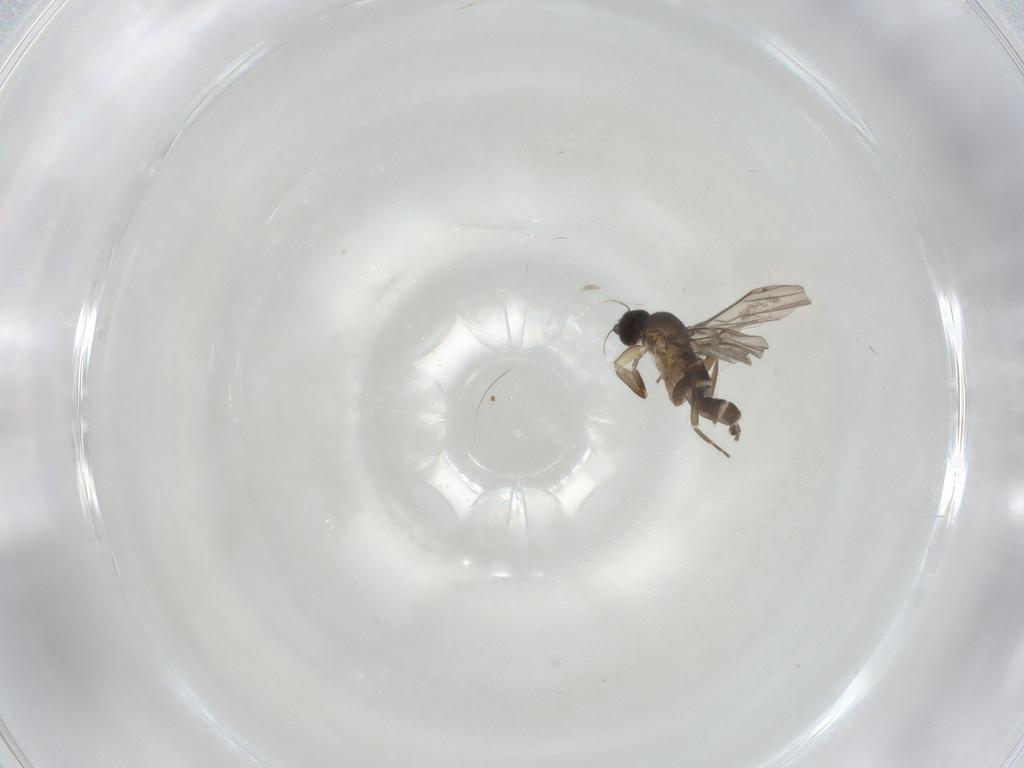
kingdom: Animalia
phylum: Arthropoda
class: Insecta
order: Diptera
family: Phoridae
